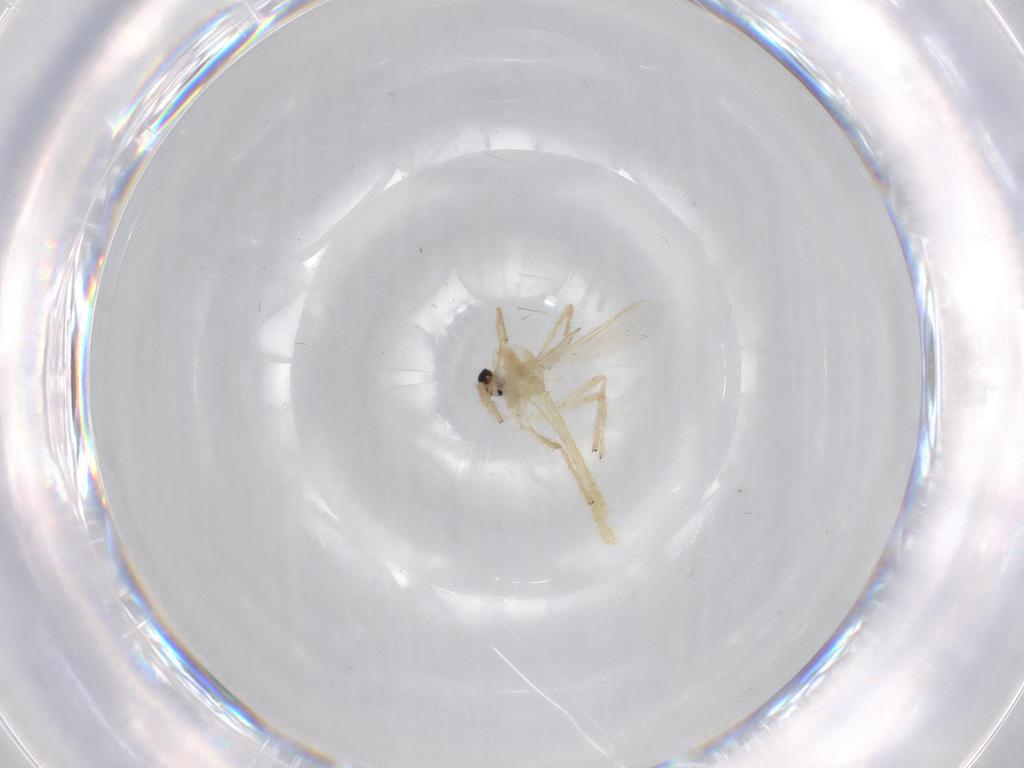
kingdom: Animalia
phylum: Arthropoda
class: Insecta
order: Diptera
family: Chironomidae
